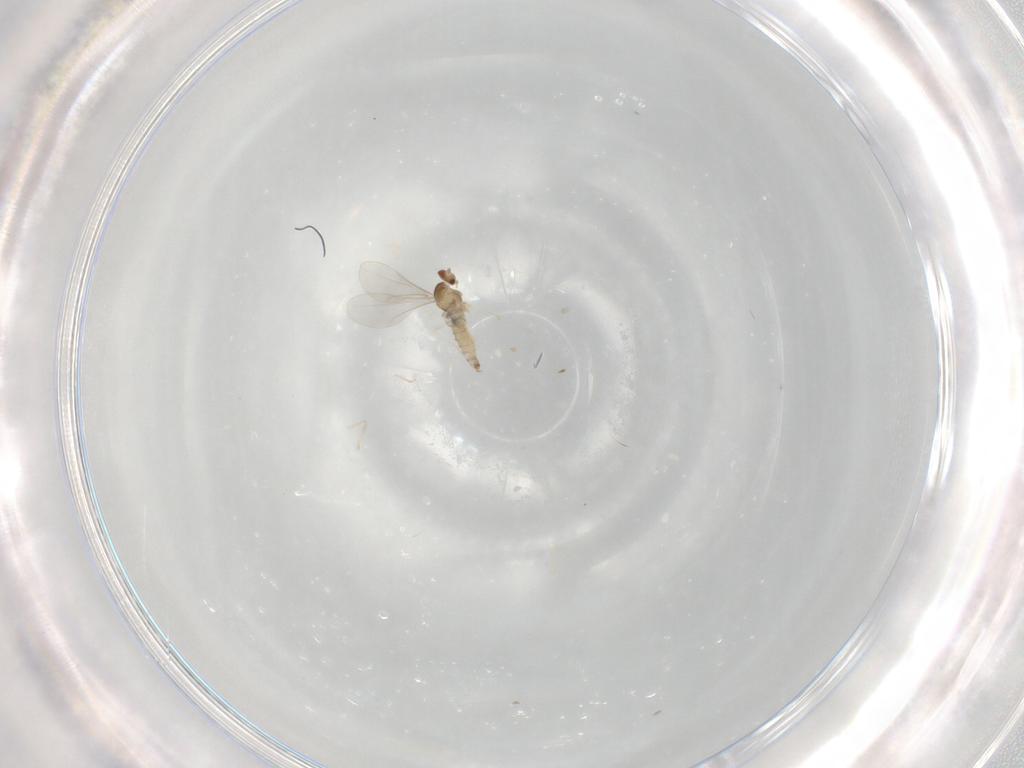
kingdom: Animalia
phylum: Arthropoda
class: Insecta
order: Diptera
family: Cecidomyiidae
